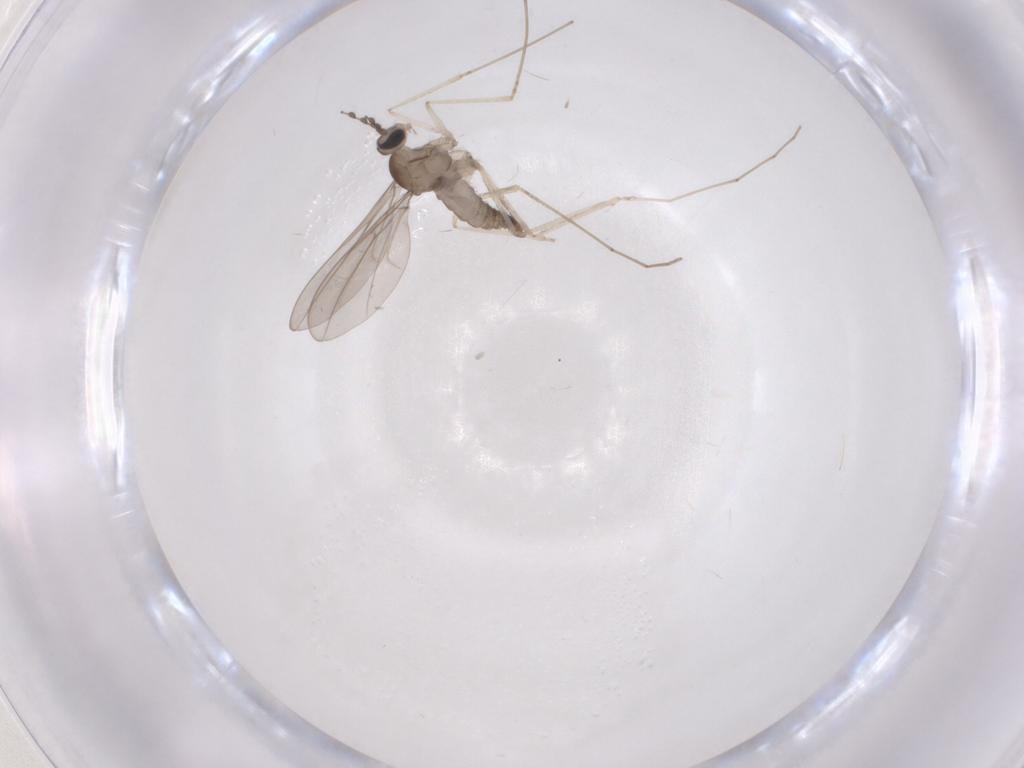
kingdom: Animalia
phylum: Arthropoda
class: Insecta
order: Diptera
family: Cecidomyiidae
